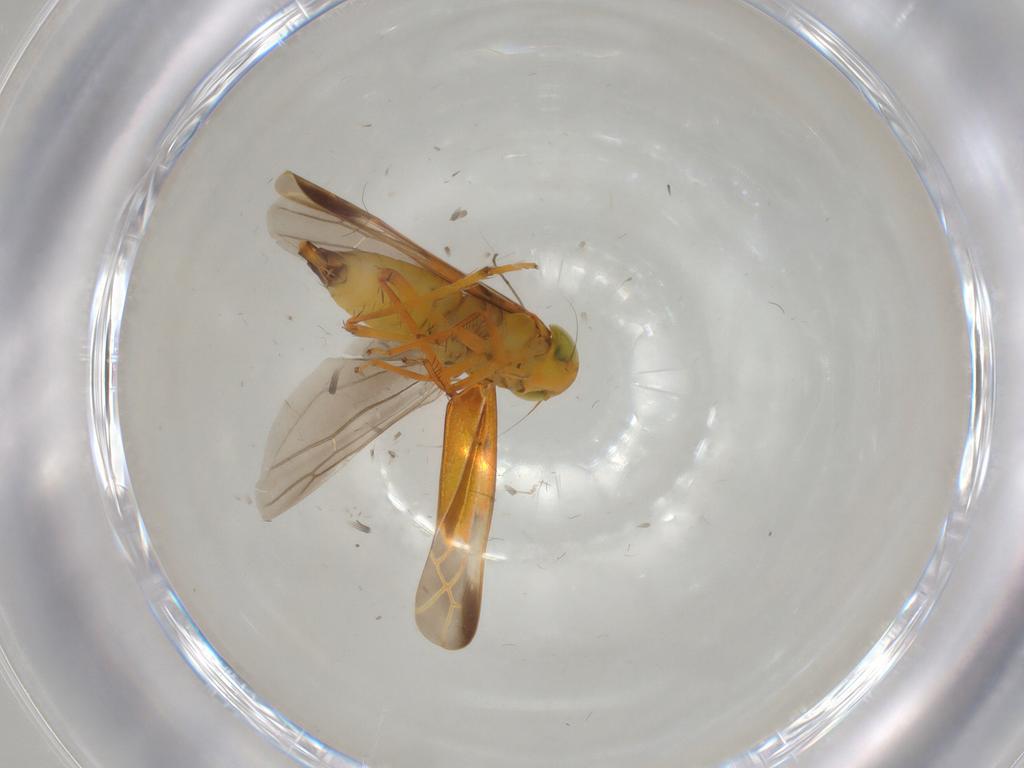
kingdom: Animalia
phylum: Arthropoda
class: Insecta
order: Hemiptera
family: Cicadellidae
